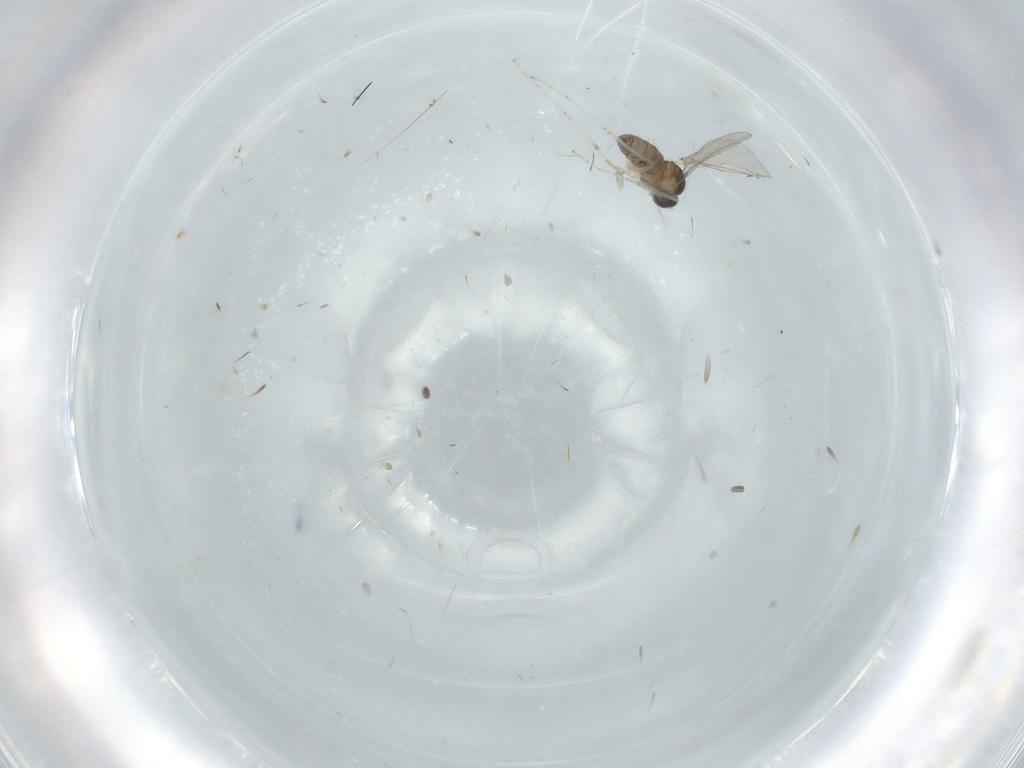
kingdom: Animalia
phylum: Arthropoda
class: Insecta
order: Diptera
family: Cecidomyiidae
